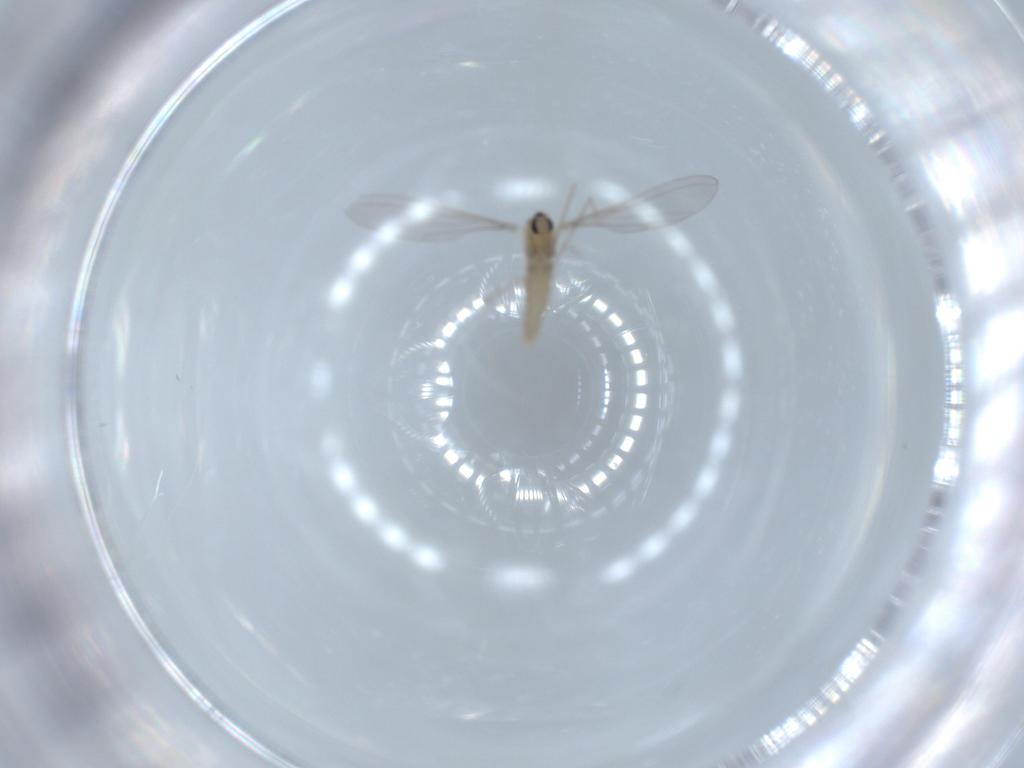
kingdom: Animalia
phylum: Arthropoda
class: Insecta
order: Diptera
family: Cecidomyiidae
